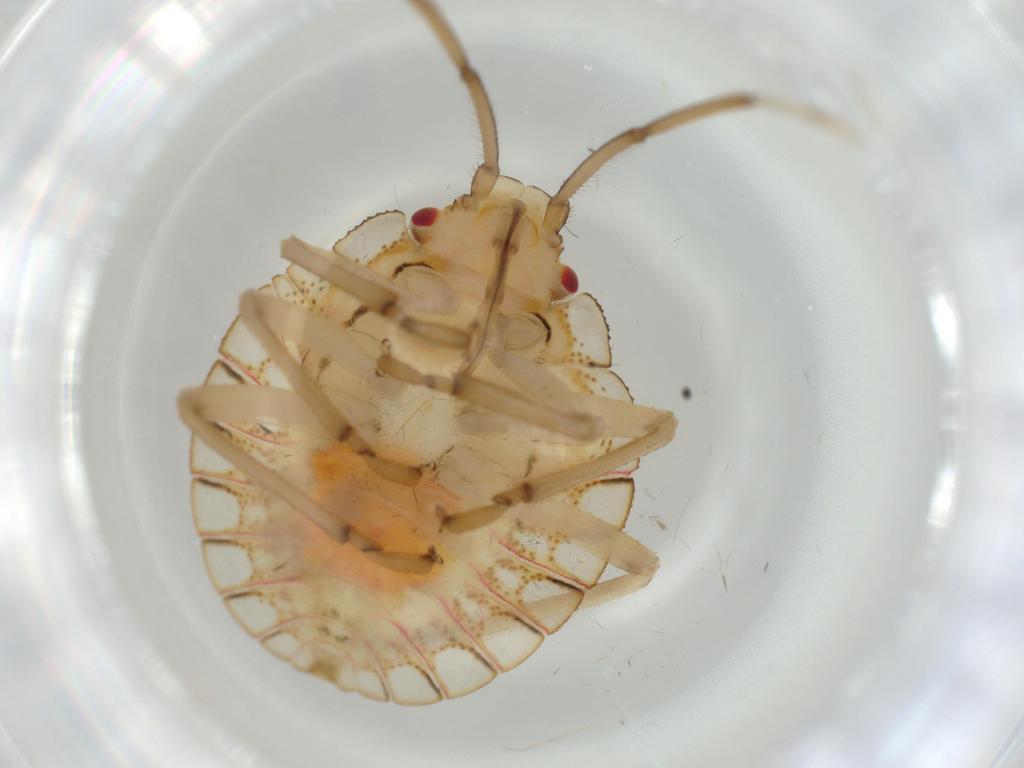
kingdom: Animalia
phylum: Arthropoda
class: Insecta
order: Hemiptera
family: Pentatomidae
